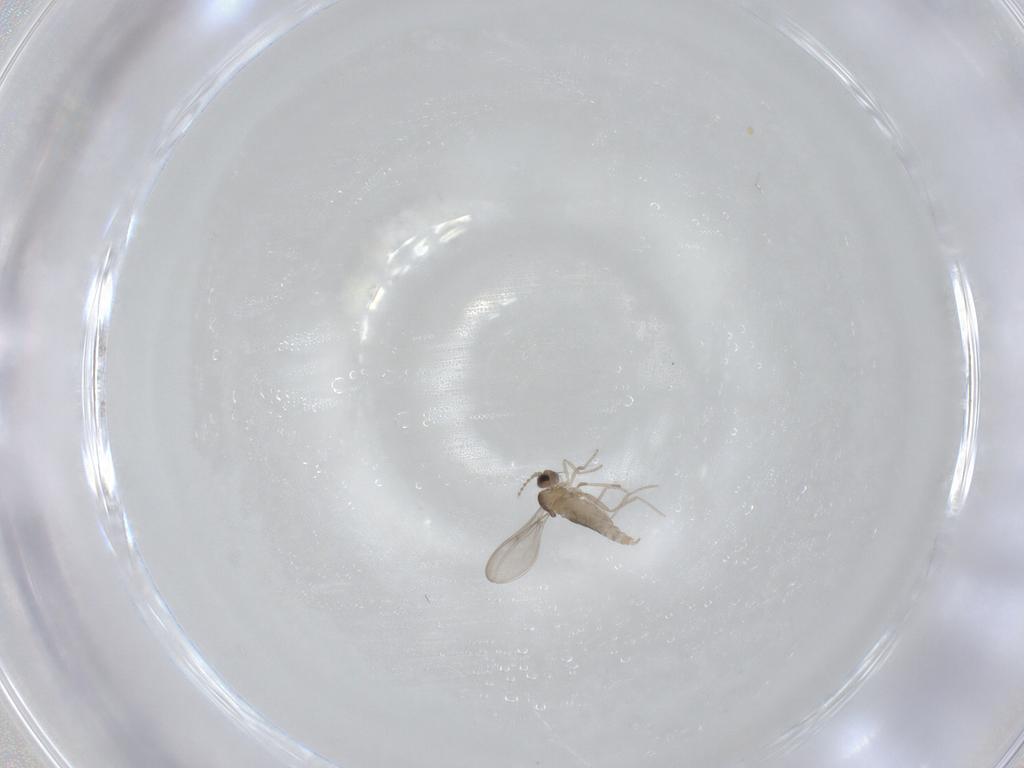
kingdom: Animalia
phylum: Arthropoda
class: Insecta
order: Diptera
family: Cecidomyiidae
